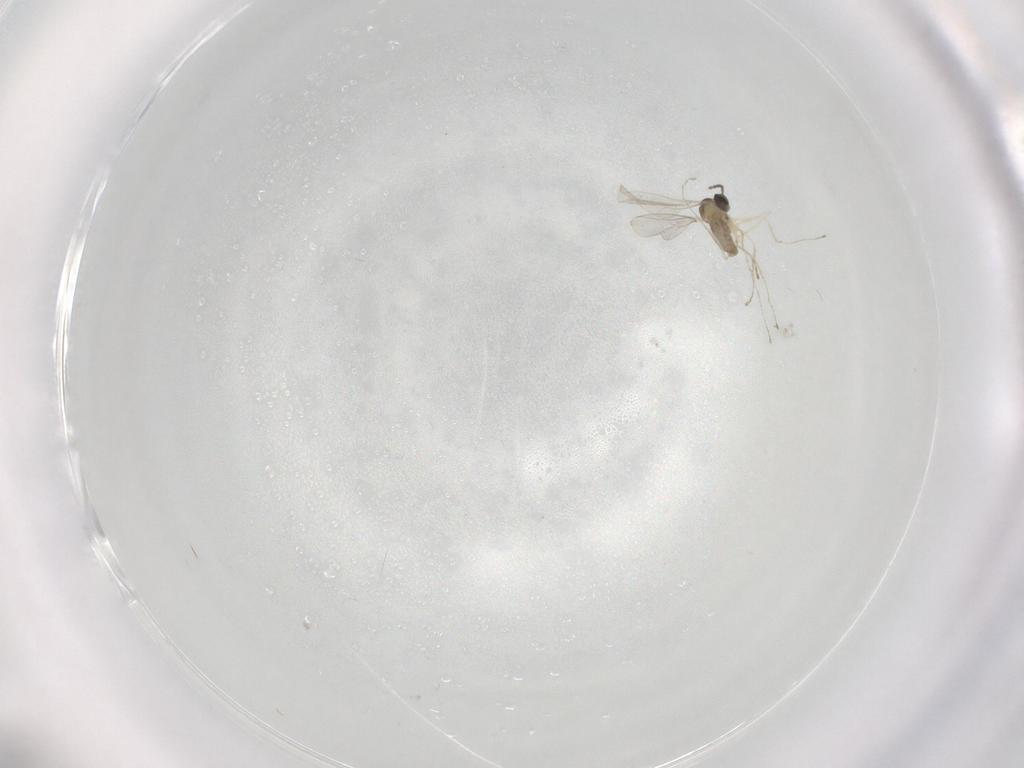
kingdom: Animalia
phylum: Arthropoda
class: Insecta
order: Diptera
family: Cecidomyiidae
